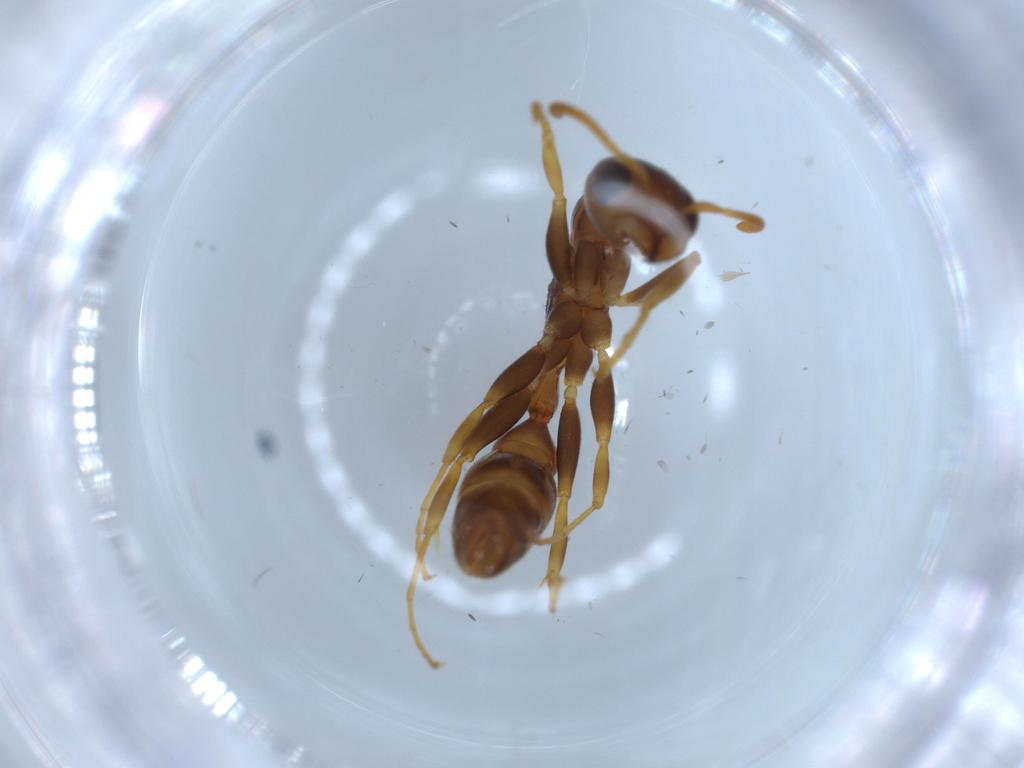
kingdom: Animalia
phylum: Arthropoda
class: Insecta
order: Hymenoptera
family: Formicidae
